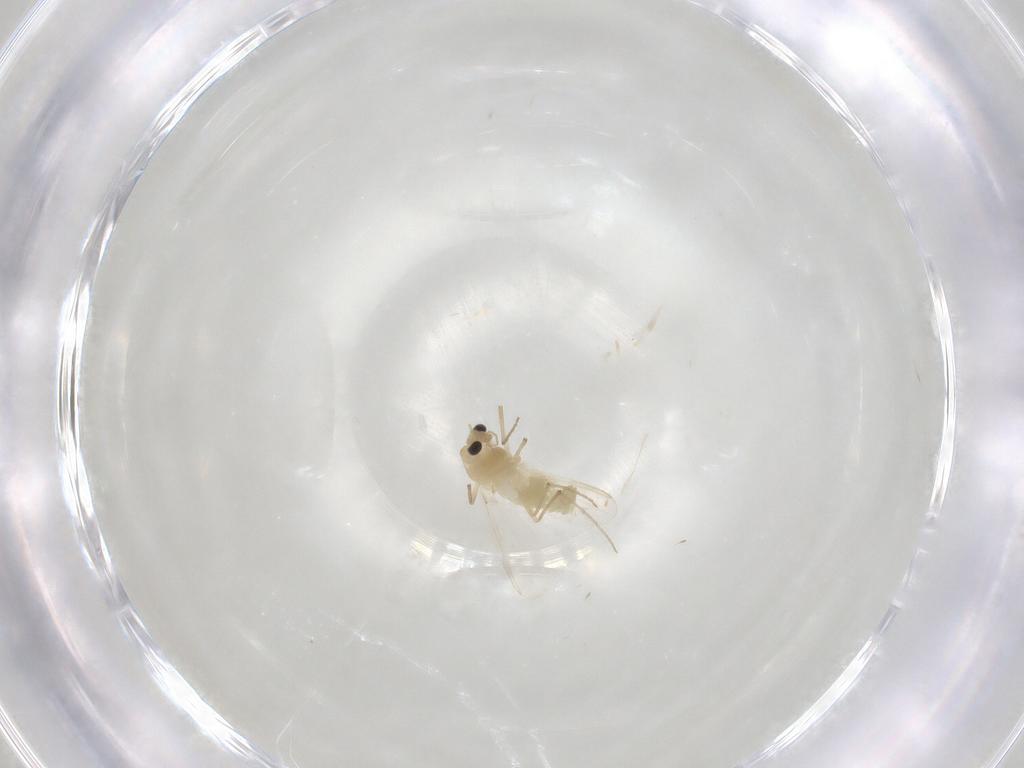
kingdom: Animalia
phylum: Arthropoda
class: Insecta
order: Diptera
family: Chironomidae
